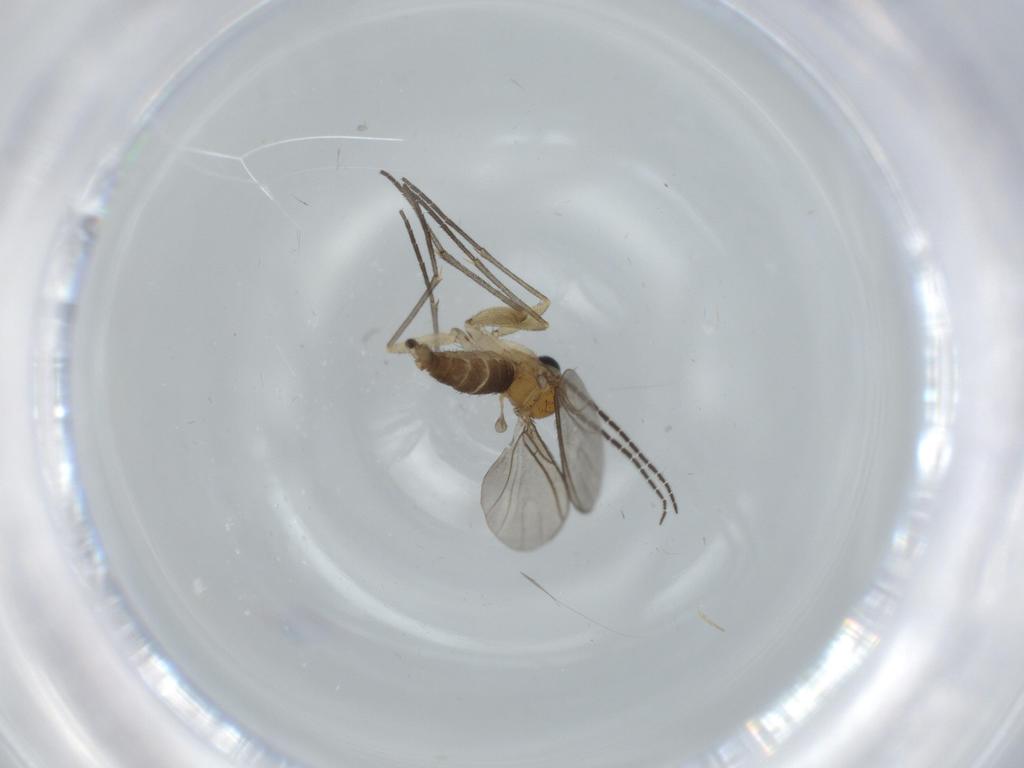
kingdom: Animalia
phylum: Arthropoda
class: Insecta
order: Diptera
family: Sciaridae
